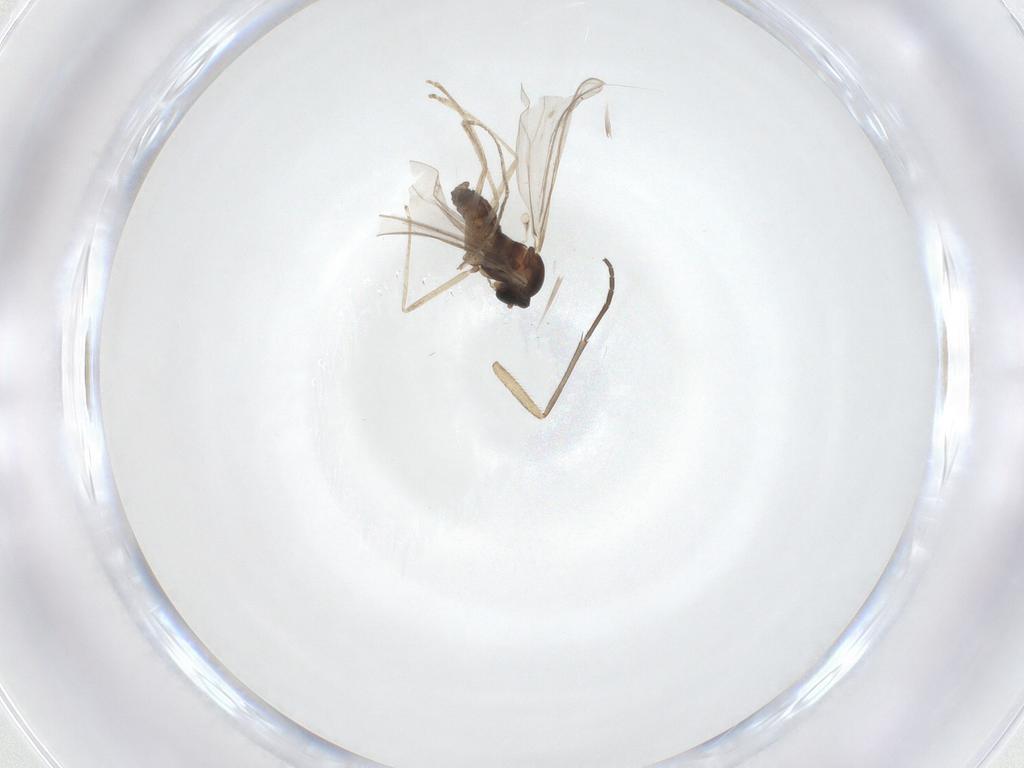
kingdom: Animalia
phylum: Arthropoda
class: Insecta
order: Diptera
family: Cecidomyiidae
